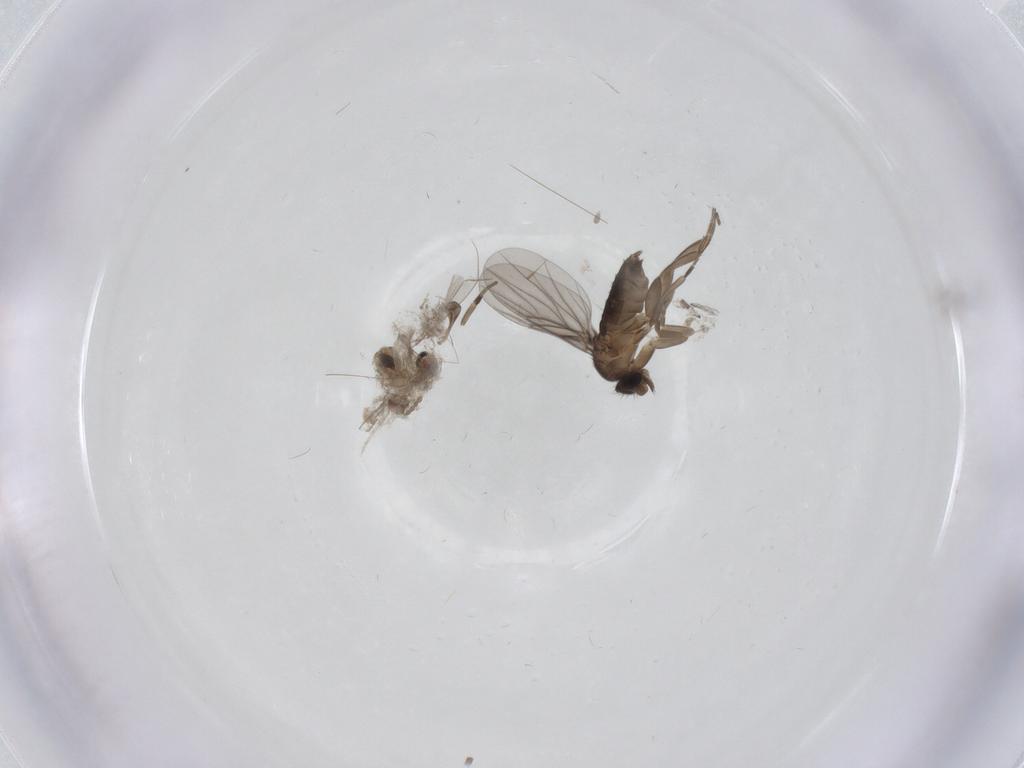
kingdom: Animalia
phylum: Arthropoda
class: Insecta
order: Diptera
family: Phoridae
